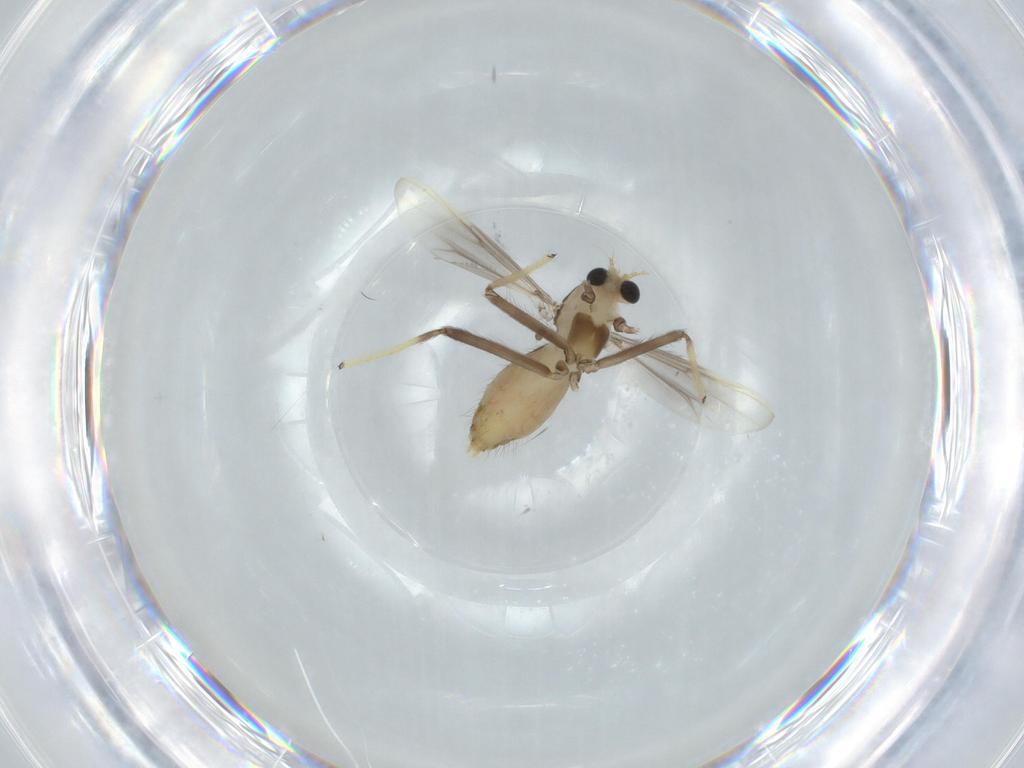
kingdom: Animalia
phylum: Arthropoda
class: Insecta
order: Diptera
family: Chironomidae
